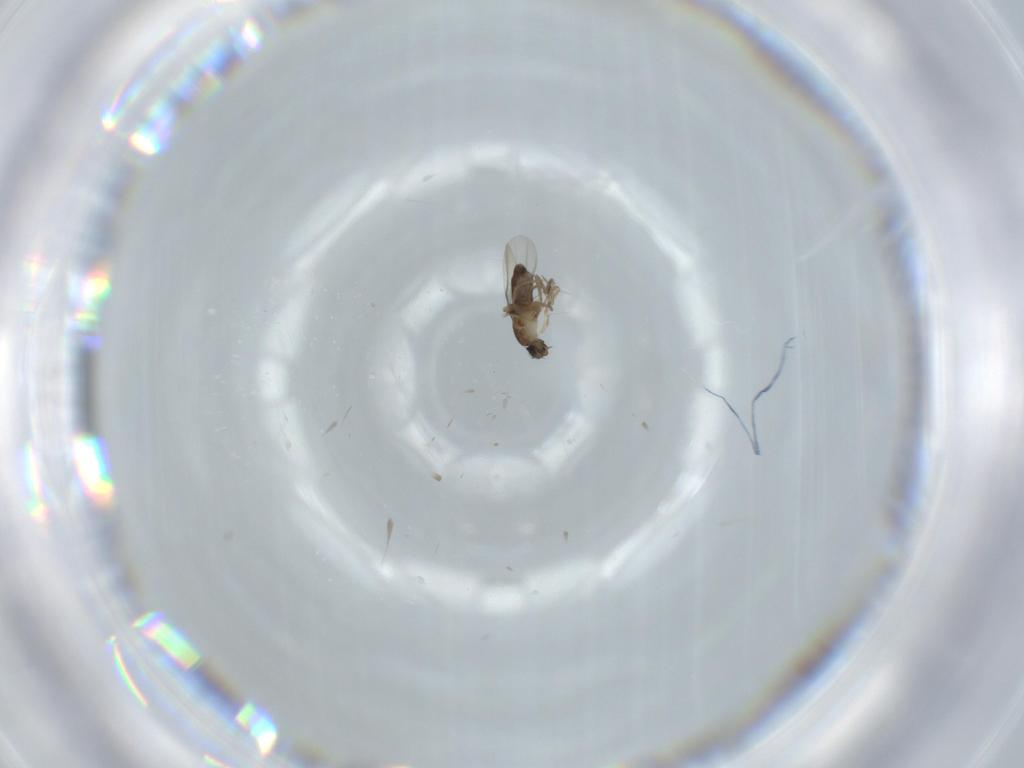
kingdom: Animalia
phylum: Arthropoda
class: Insecta
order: Diptera
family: Phoridae
